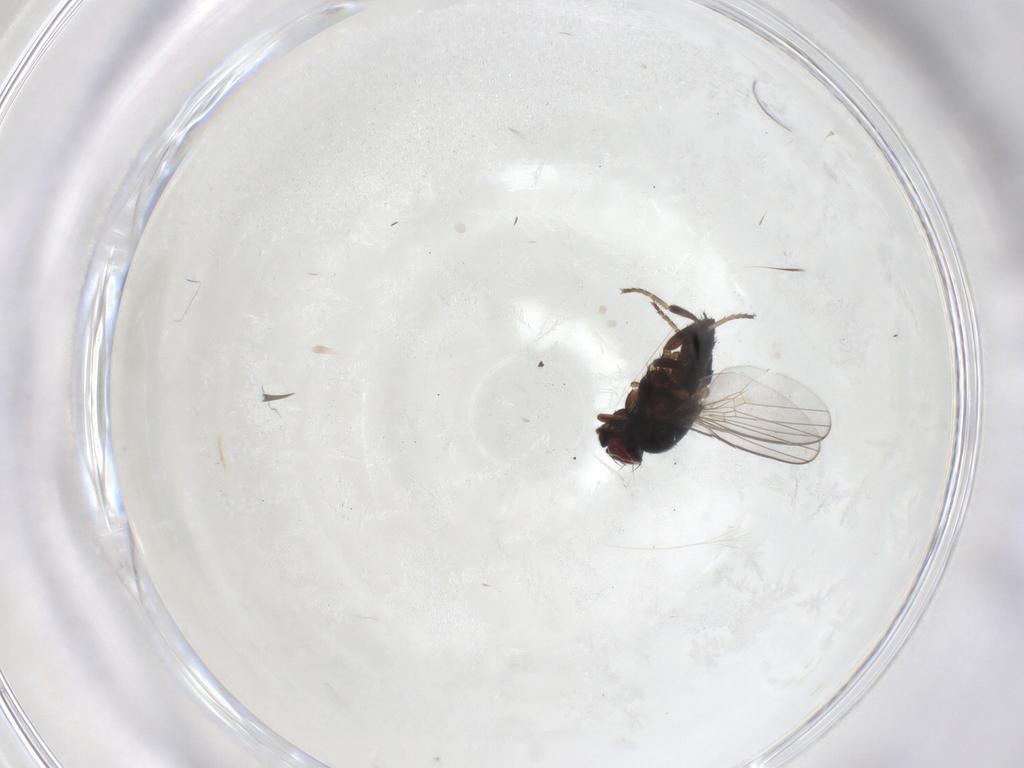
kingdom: Animalia
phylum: Arthropoda
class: Insecta
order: Diptera
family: Milichiidae
